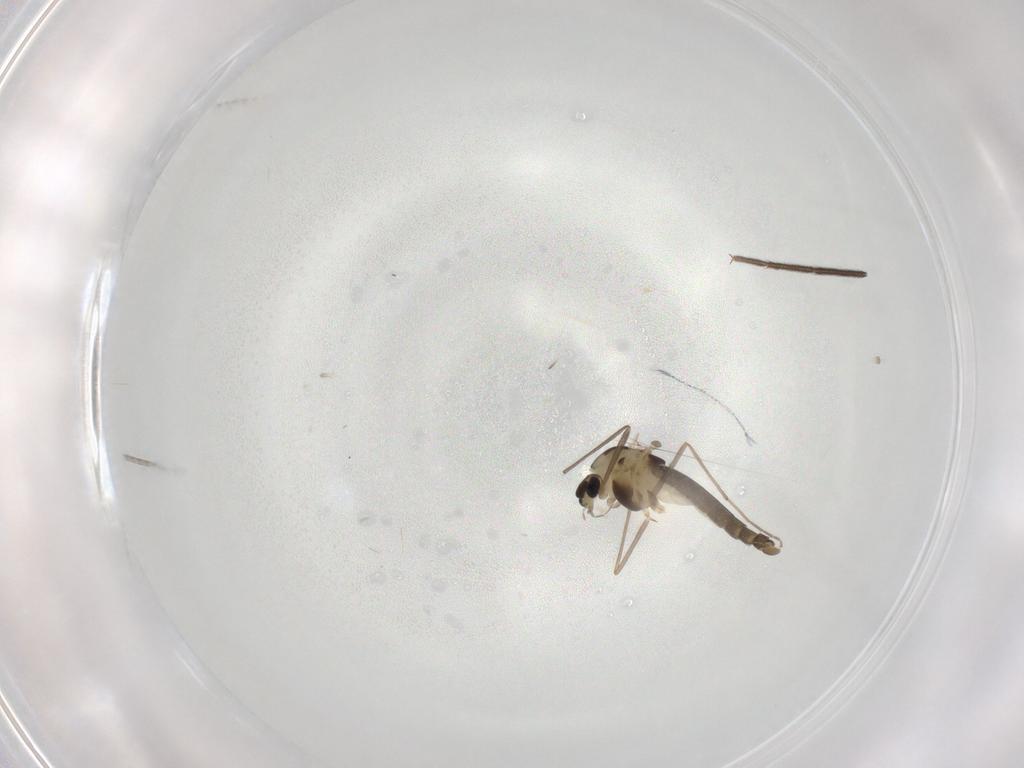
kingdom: Animalia
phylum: Arthropoda
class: Insecta
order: Diptera
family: Chironomidae
